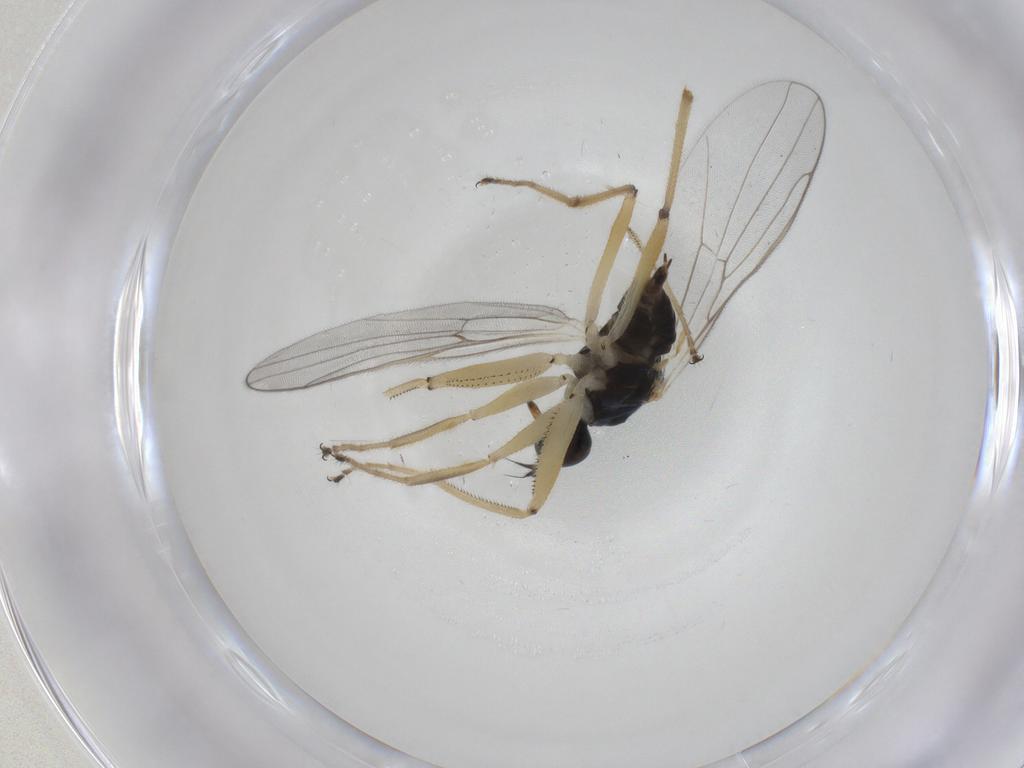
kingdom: Animalia
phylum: Arthropoda
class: Insecta
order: Diptera
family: Hybotidae
